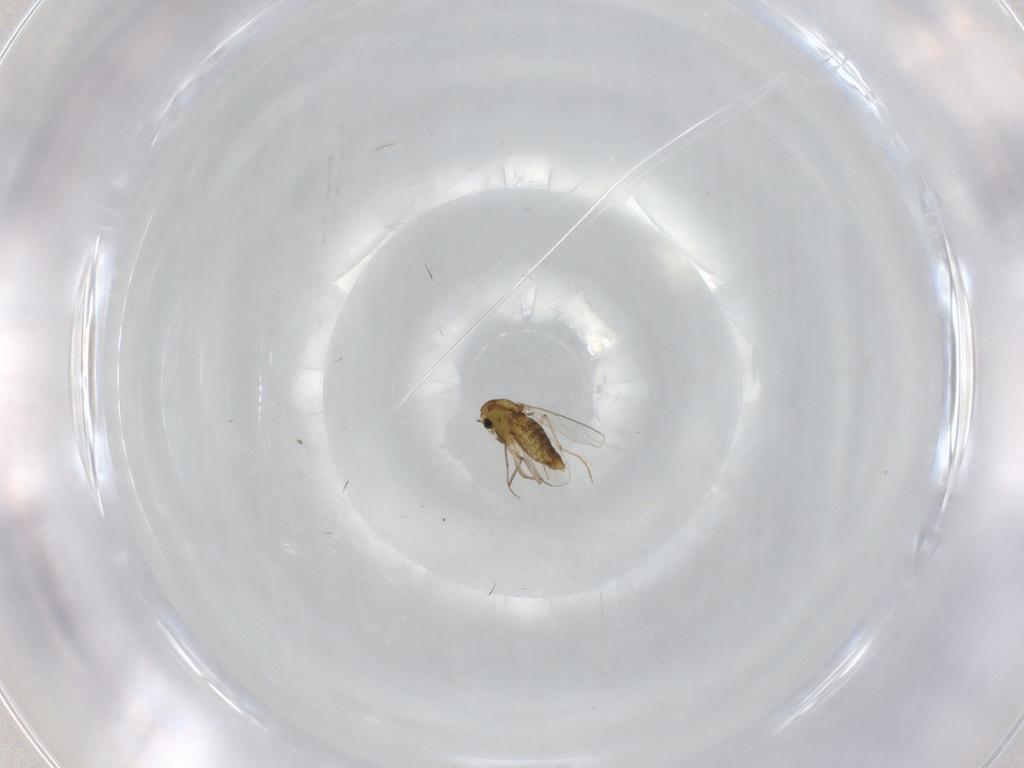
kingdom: Animalia
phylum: Arthropoda
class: Insecta
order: Diptera
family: Chironomidae
